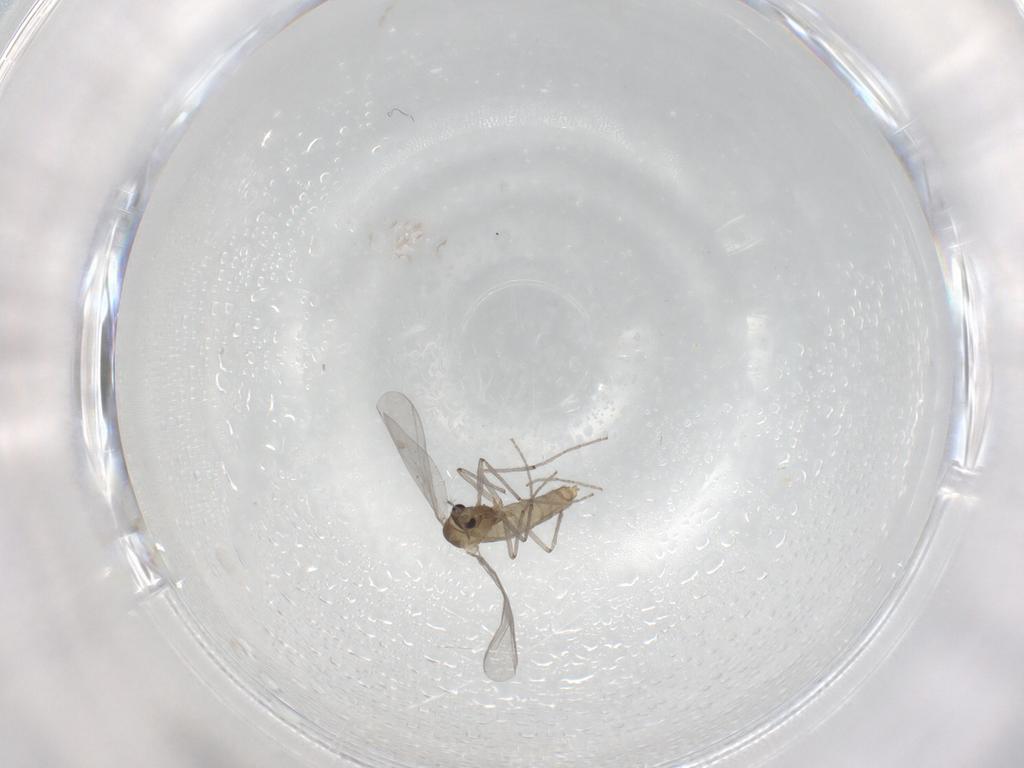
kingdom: Animalia
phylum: Arthropoda
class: Insecta
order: Diptera
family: Chironomidae
